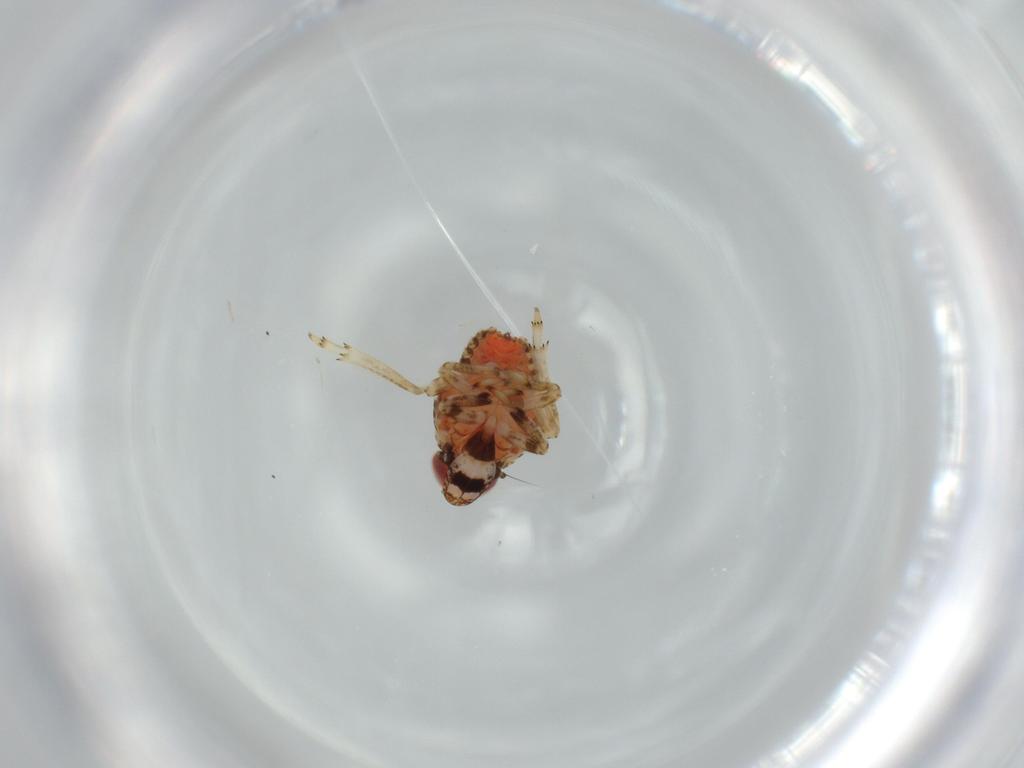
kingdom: Animalia
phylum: Arthropoda
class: Insecta
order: Hemiptera
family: Issidae
